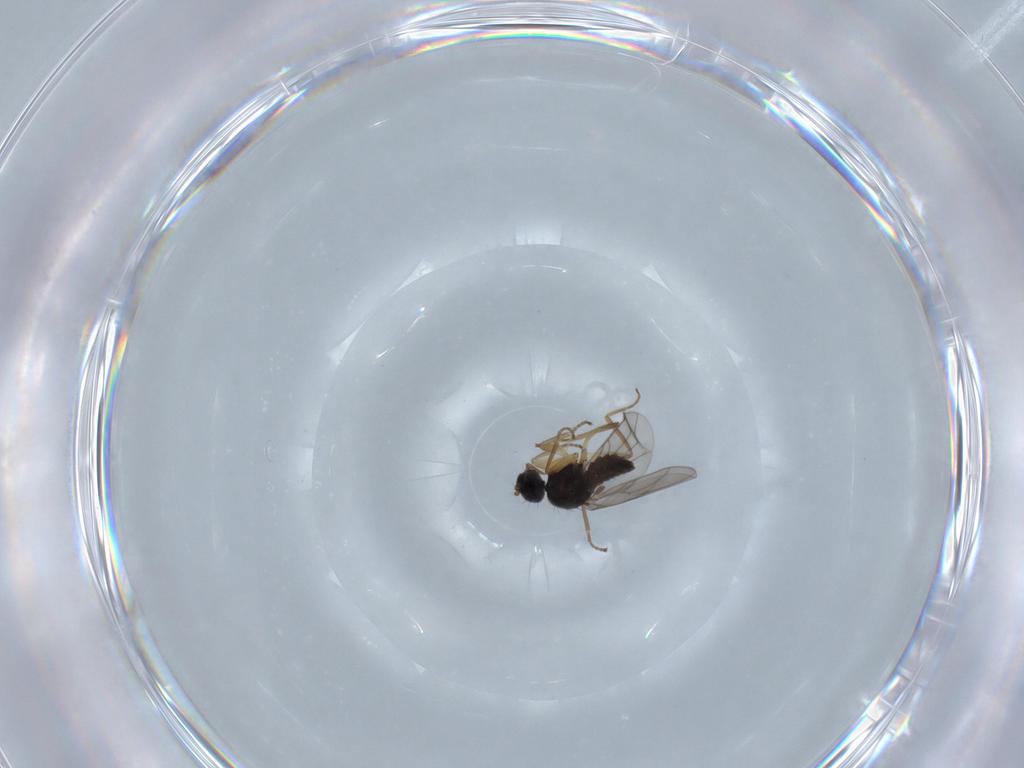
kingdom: Animalia
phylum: Arthropoda
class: Insecta
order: Diptera
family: Hybotidae
